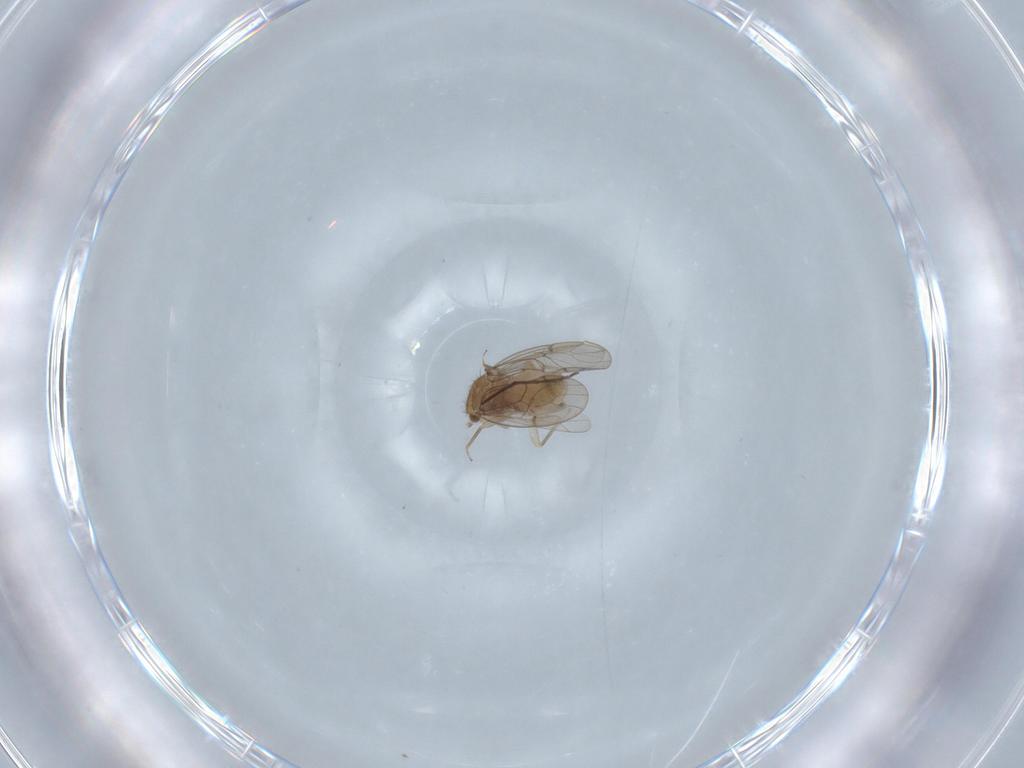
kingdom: Animalia
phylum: Arthropoda
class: Insecta
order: Psocodea
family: Ectopsocidae
